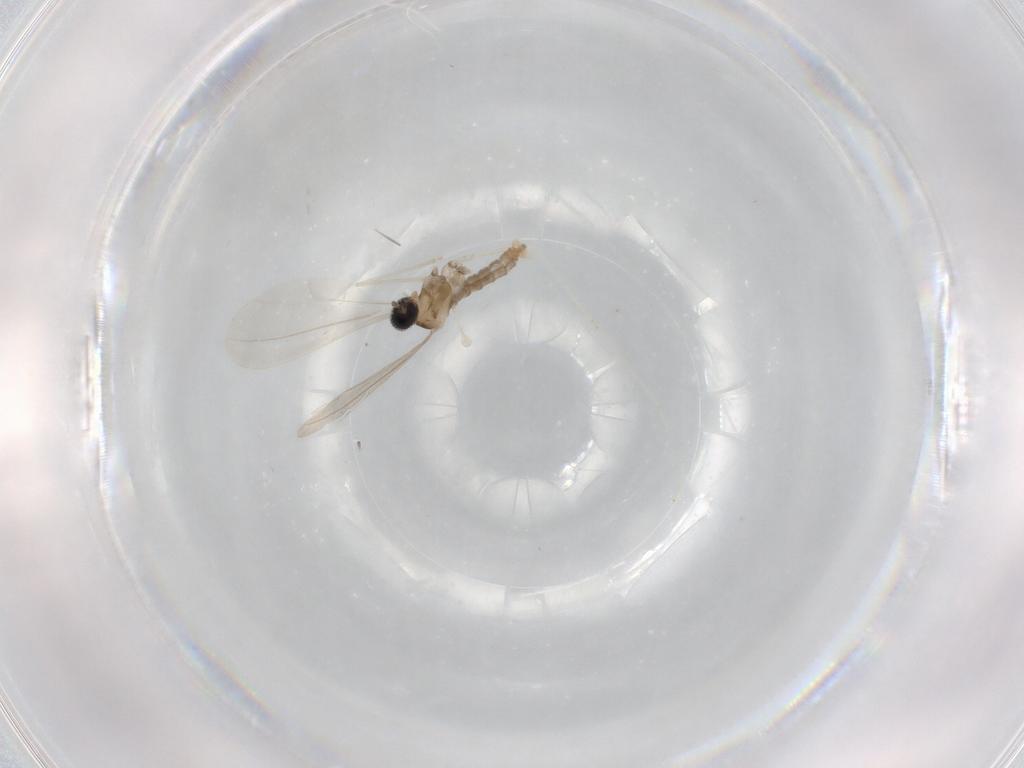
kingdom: Animalia
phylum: Arthropoda
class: Insecta
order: Diptera
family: Cecidomyiidae
